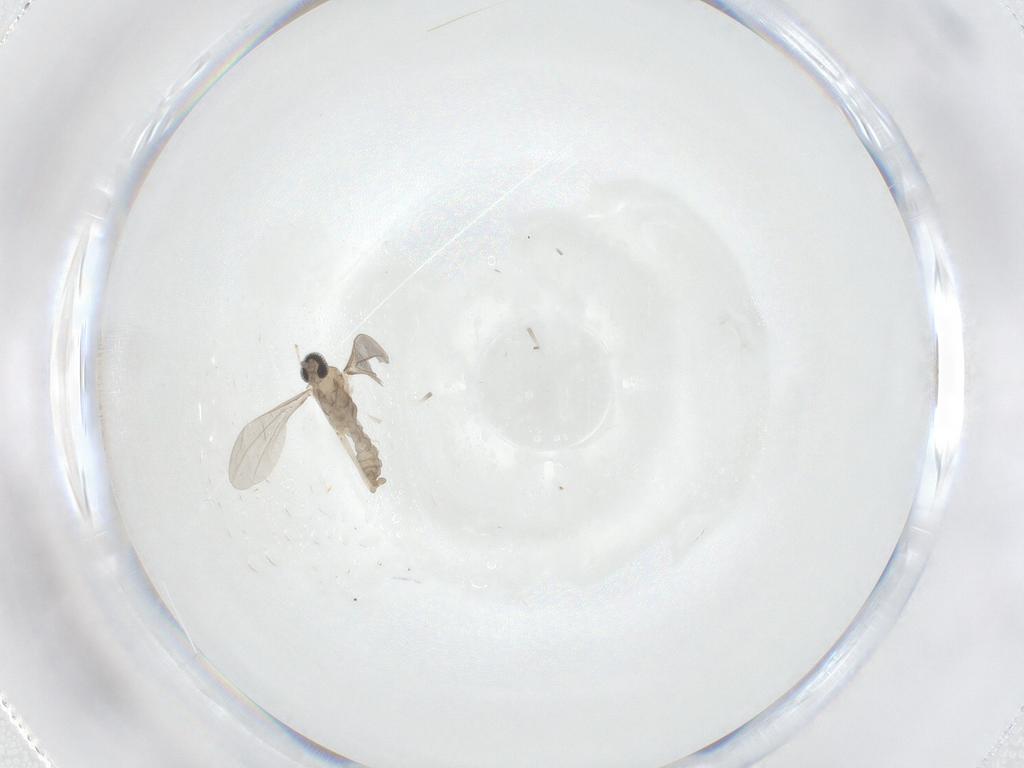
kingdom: Animalia
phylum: Arthropoda
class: Insecta
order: Diptera
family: Cecidomyiidae
